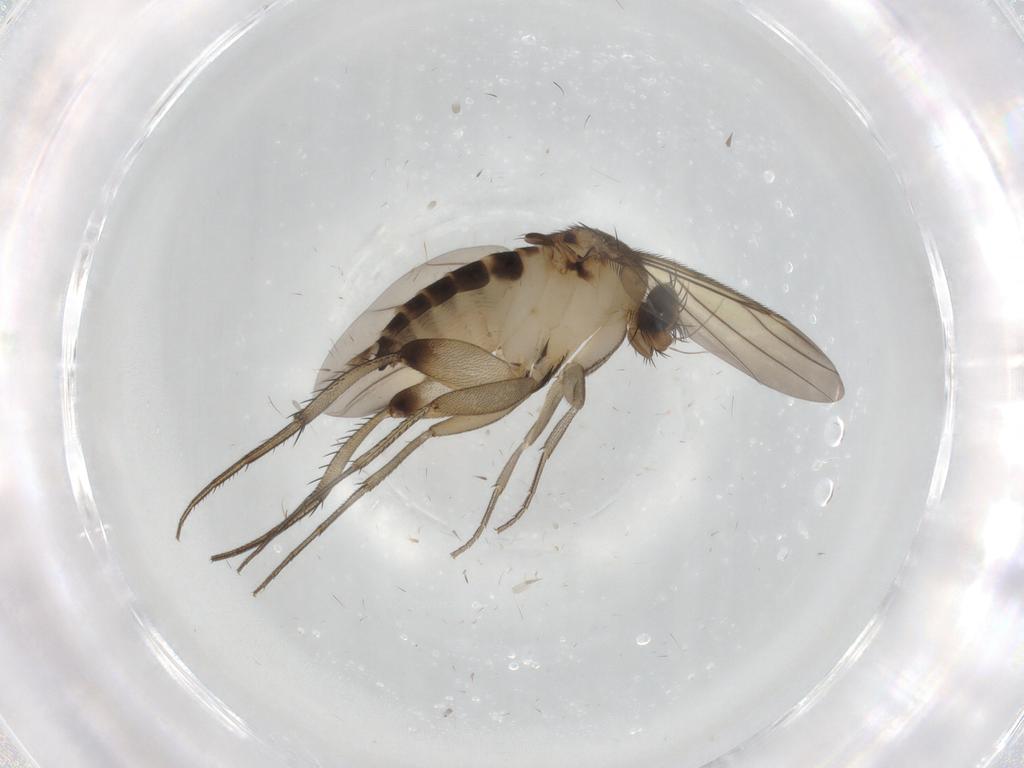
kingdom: Animalia
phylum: Arthropoda
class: Insecta
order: Diptera
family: Phoridae
